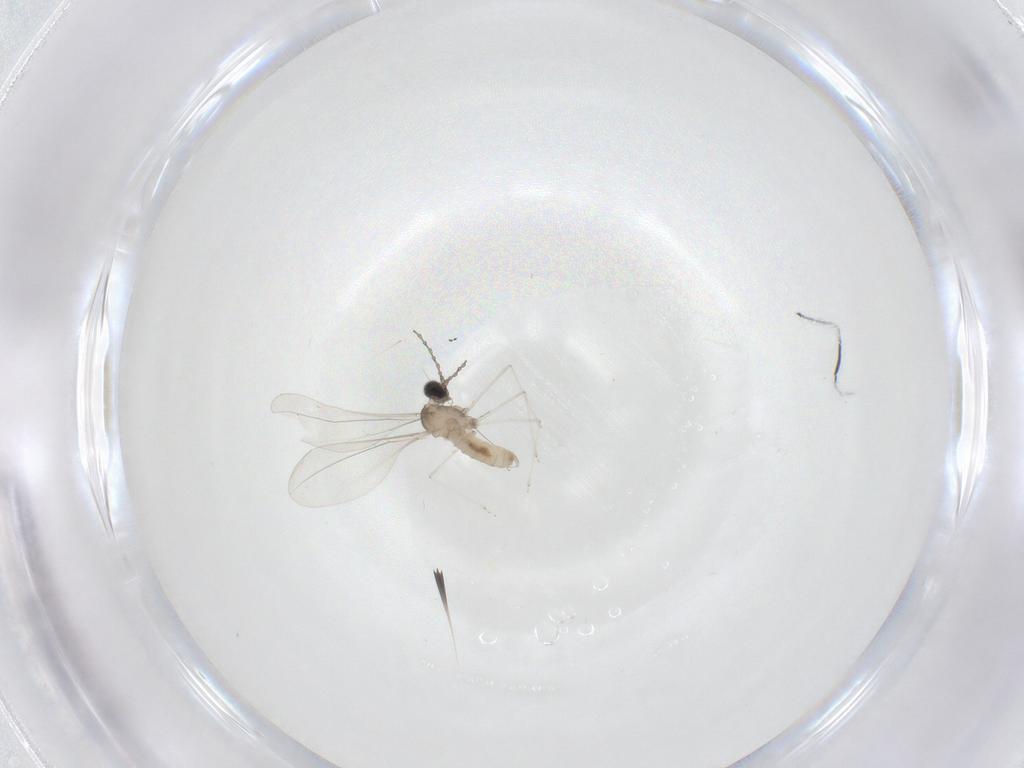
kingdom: Animalia
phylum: Arthropoda
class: Insecta
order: Diptera
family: Cecidomyiidae
